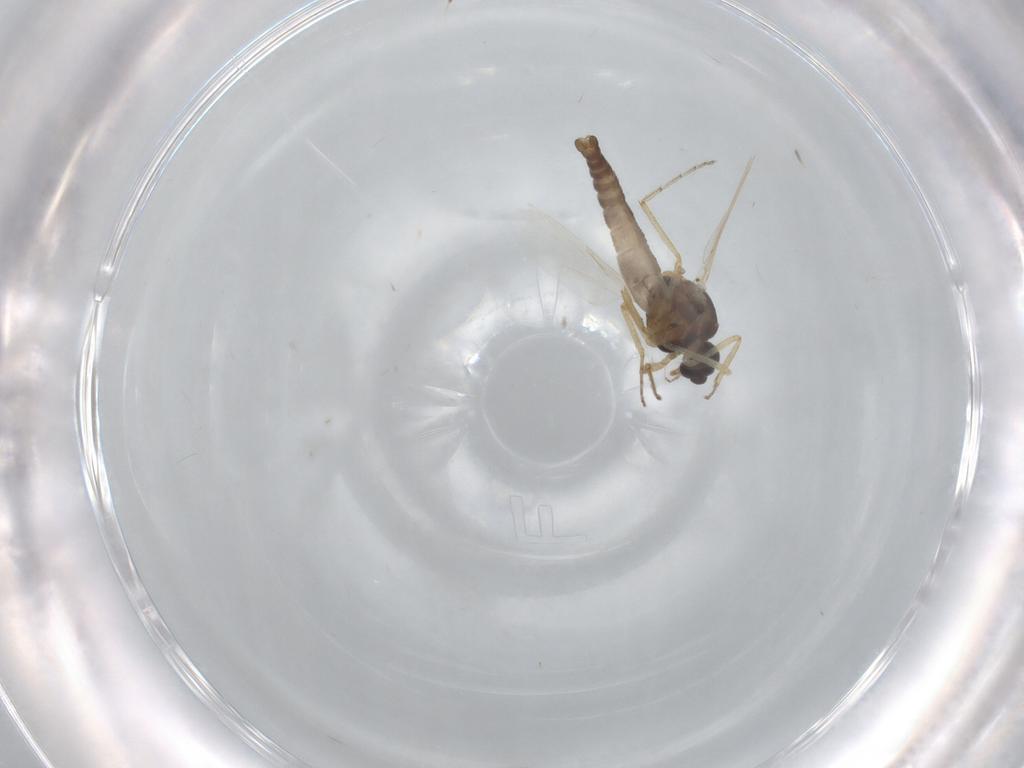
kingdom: Animalia
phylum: Arthropoda
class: Insecta
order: Diptera
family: Ceratopogonidae
